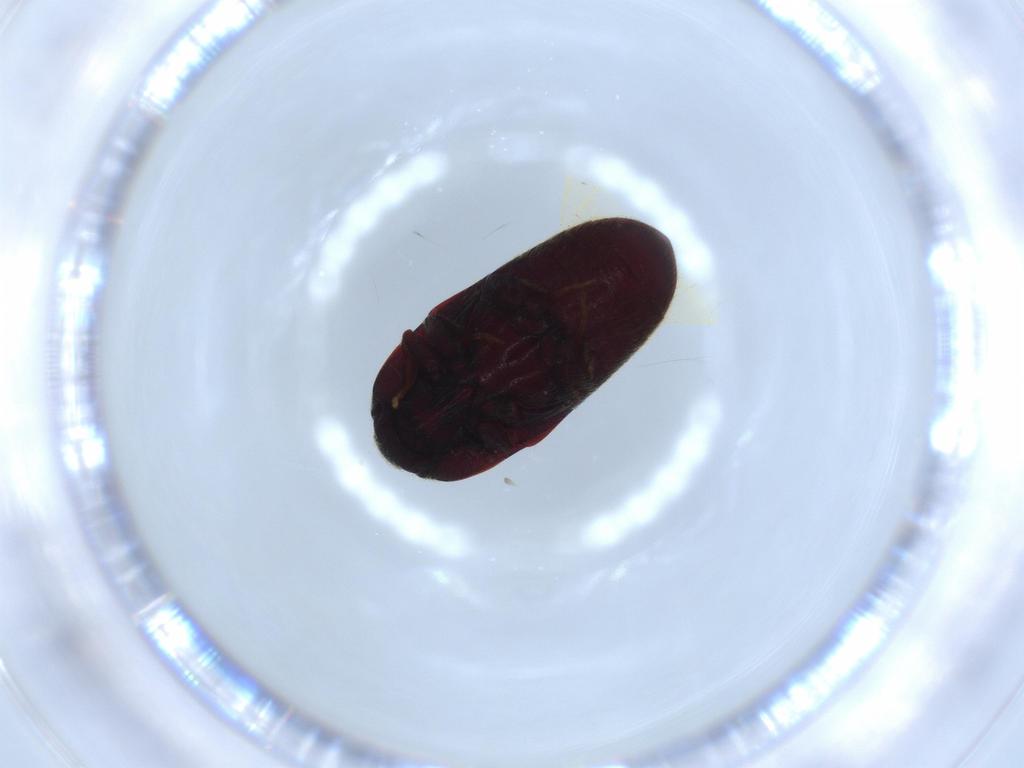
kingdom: Animalia
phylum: Arthropoda
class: Insecta
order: Coleoptera
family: Throscidae
